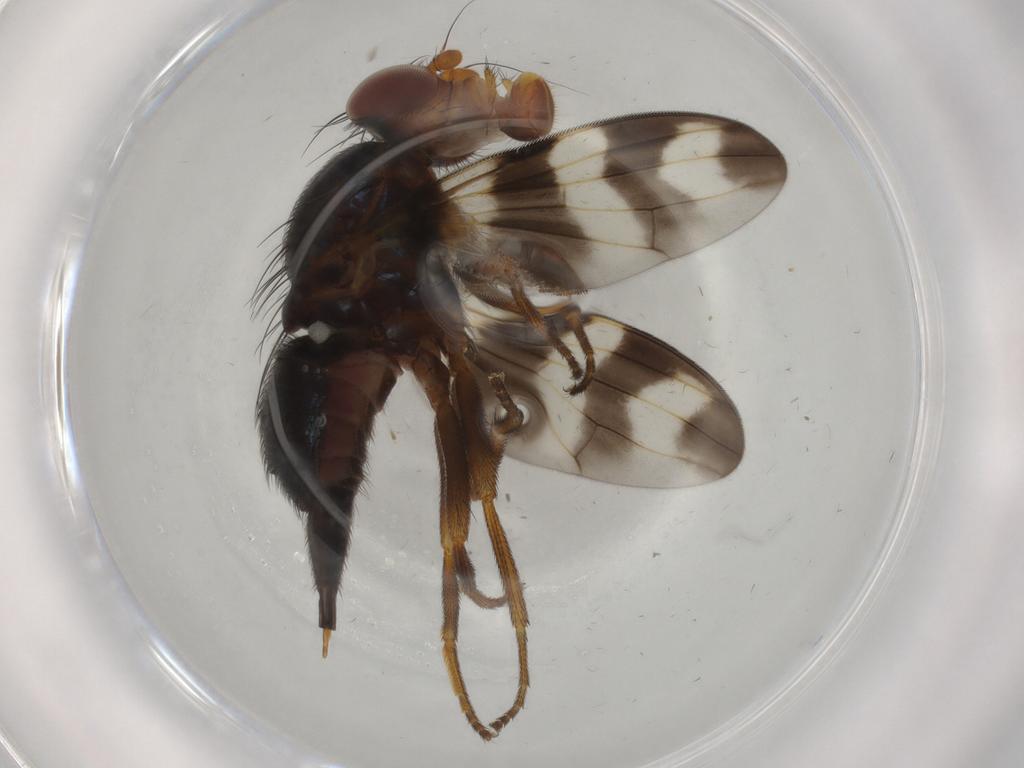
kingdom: Animalia
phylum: Arthropoda
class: Insecta
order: Diptera
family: Ulidiidae
